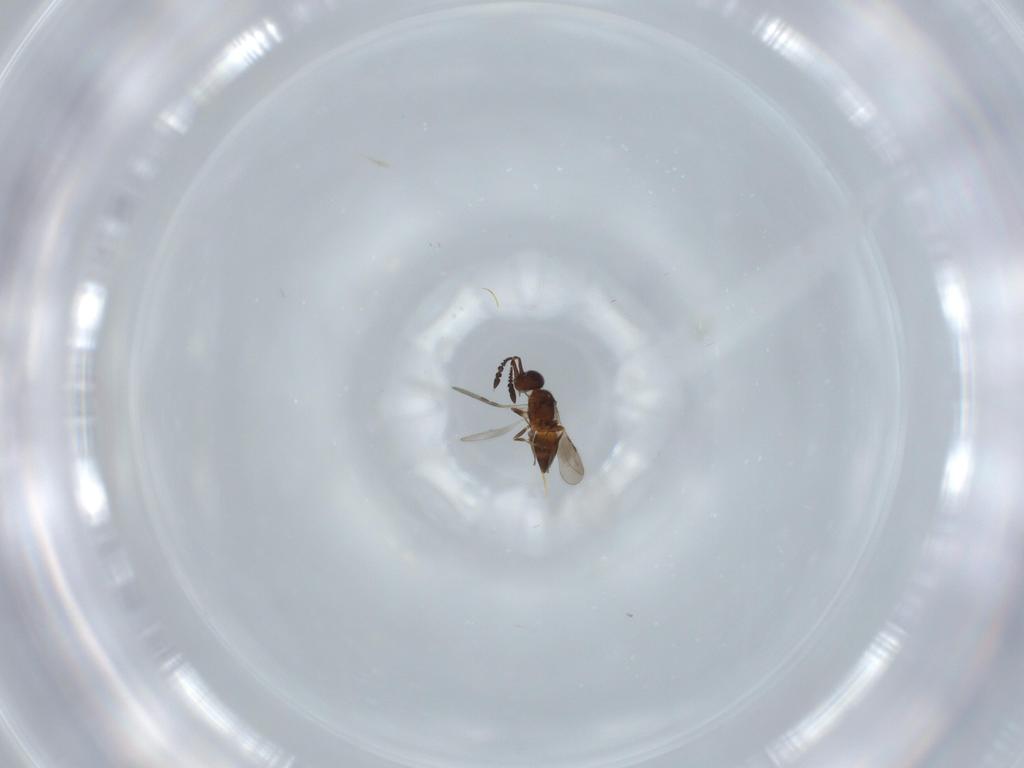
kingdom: Animalia
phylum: Arthropoda
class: Insecta
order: Hymenoptera
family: Ceraphronidae
